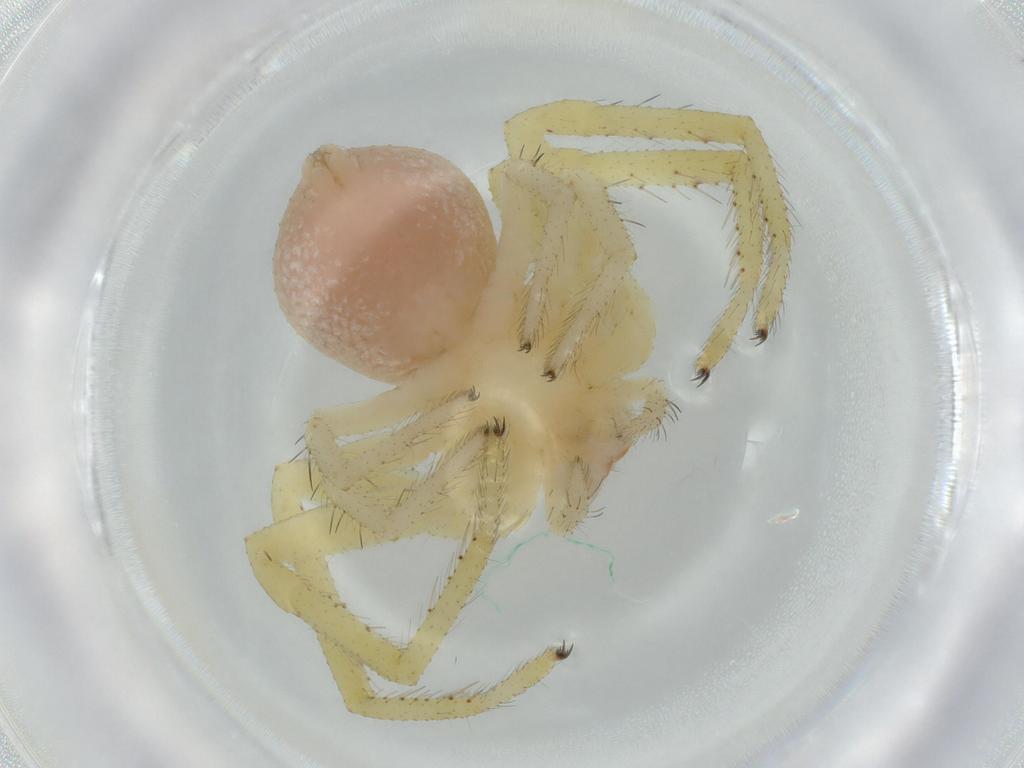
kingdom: Animalia
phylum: Arthropoda
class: Arachnida
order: Araneae
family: Thomisidae
